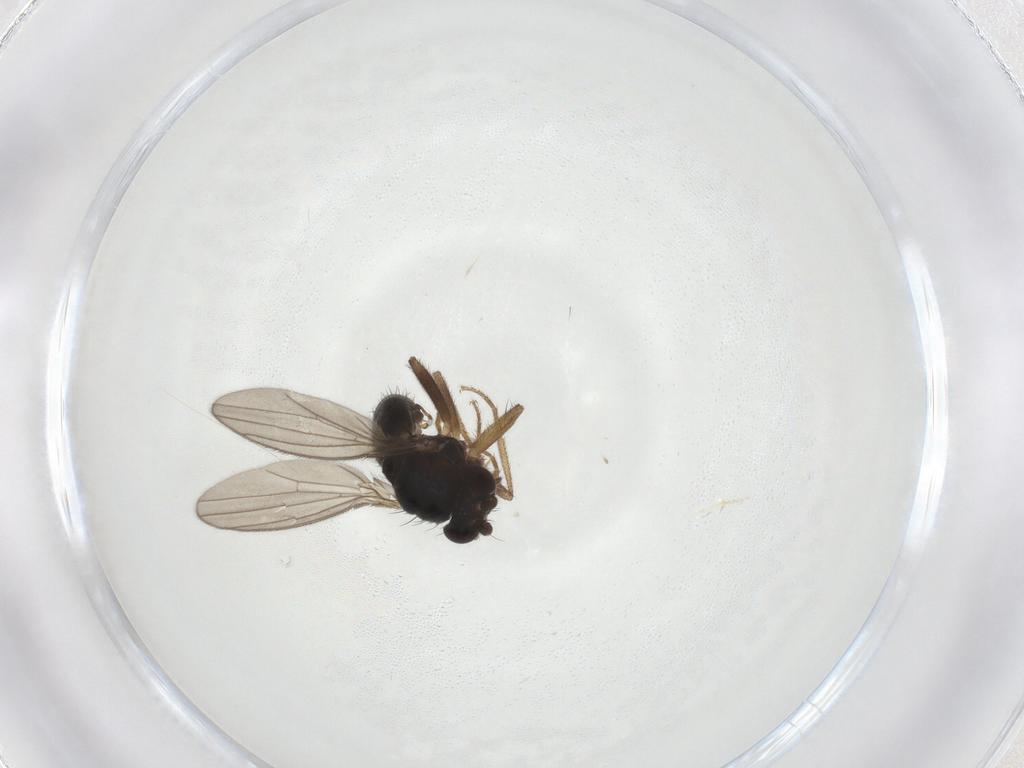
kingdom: Animalia
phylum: Arthropoda
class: Insecta
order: Diptera
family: Inbiomyiidae
